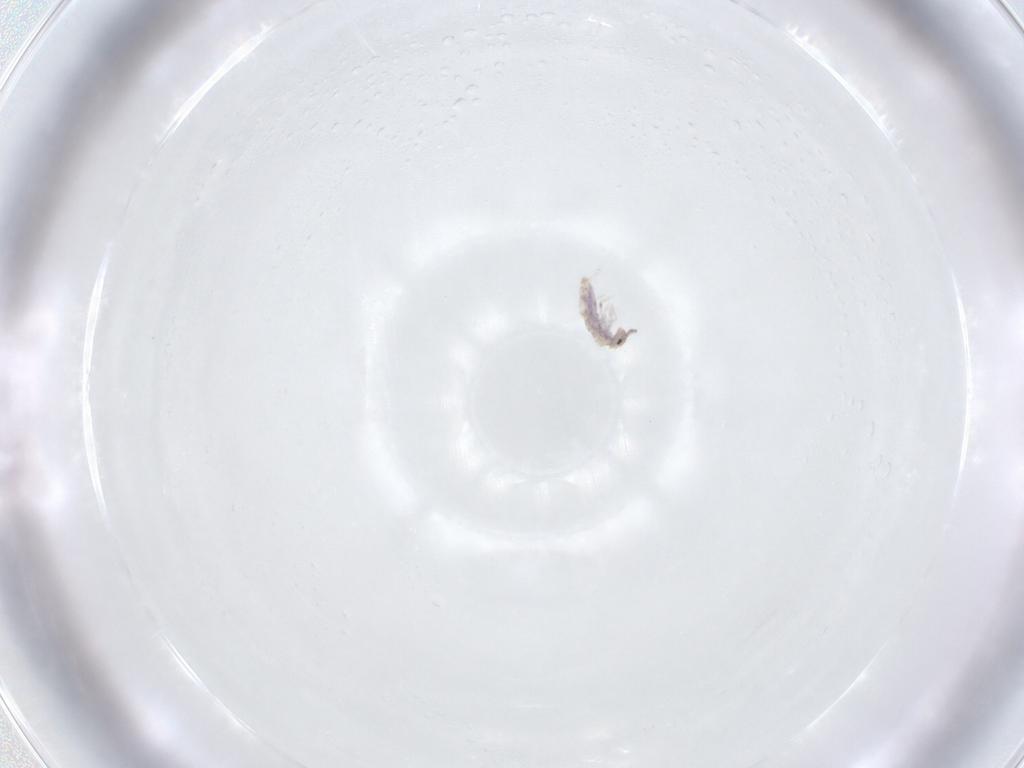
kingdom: Animalia
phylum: Arthropoda
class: Collembola
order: Entomobryomorpha
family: Entomobryidae
